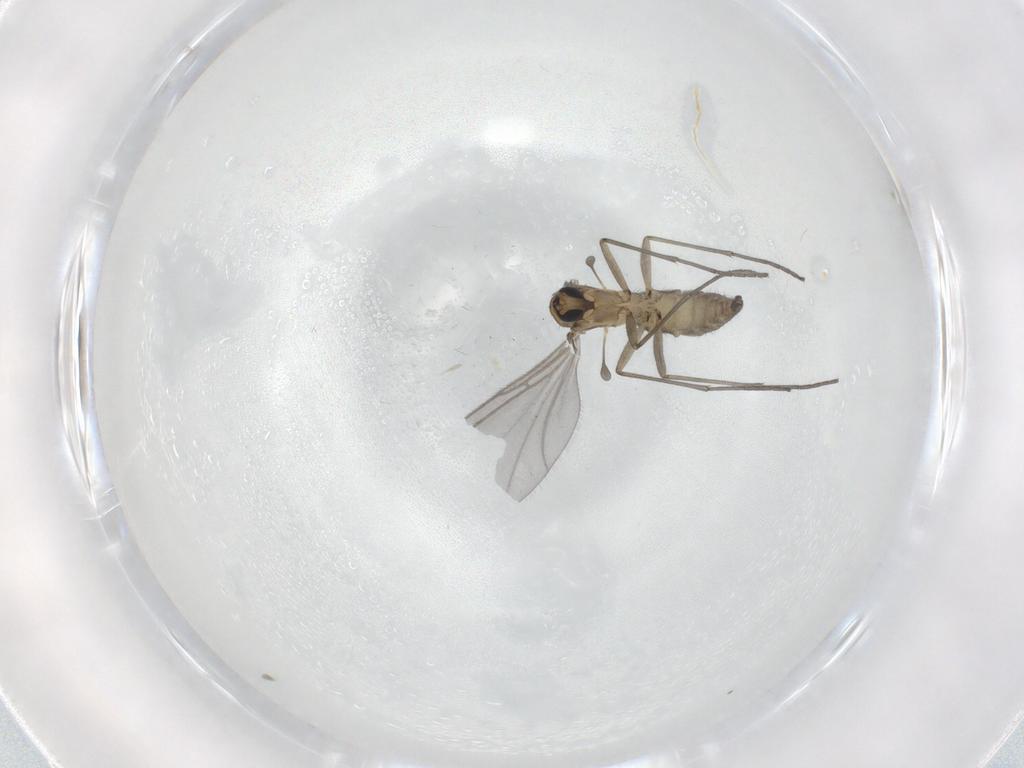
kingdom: Animalia
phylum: Arthropoda
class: Insecta
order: Diptera
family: Sciaridae
